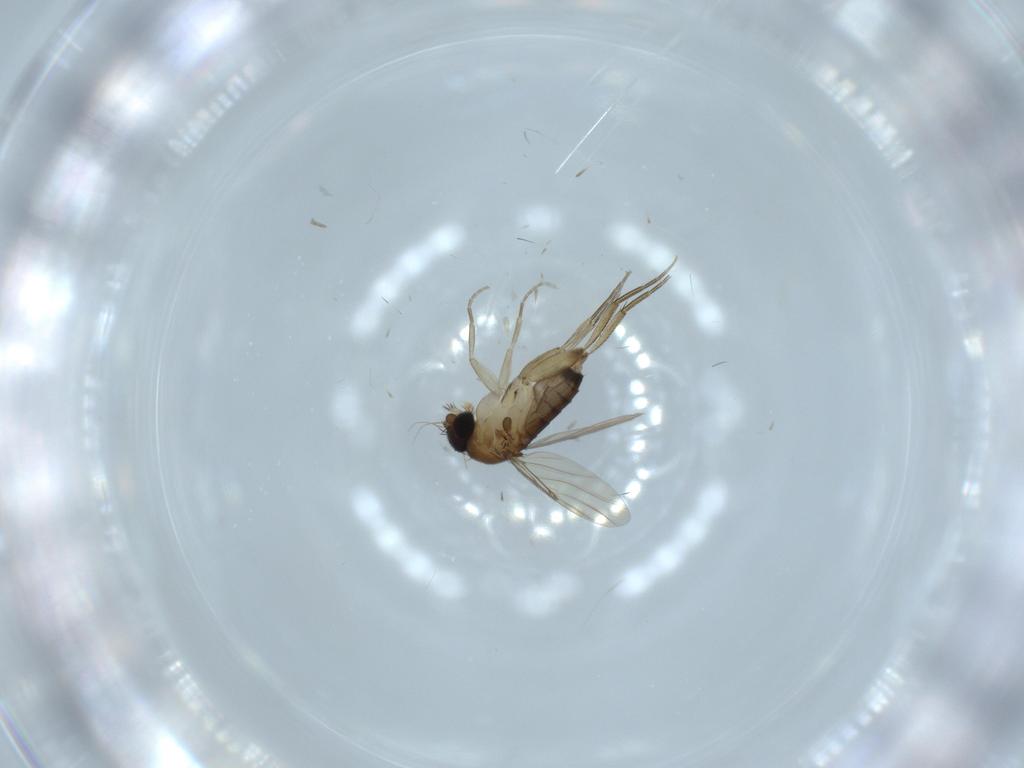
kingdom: Animalia
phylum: Arthropoda
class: Insecta
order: Diptera
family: Phoridae
